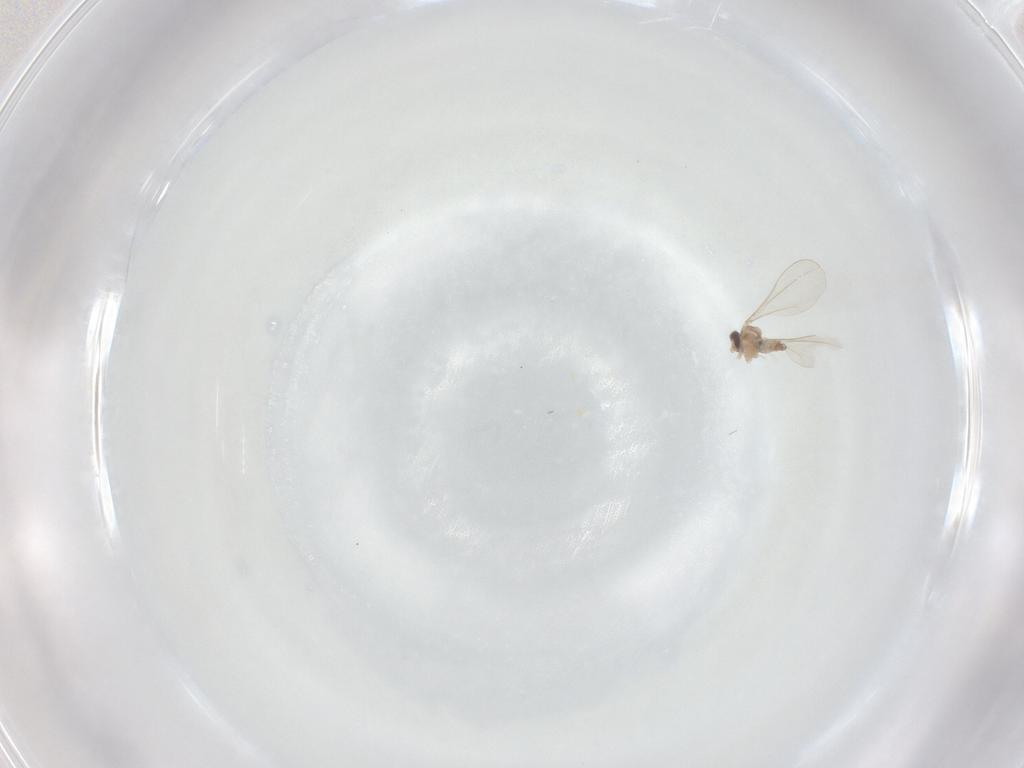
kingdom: Animalia
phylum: Arthropoda
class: Insecta
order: Diptera
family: Cecidomyiidae
